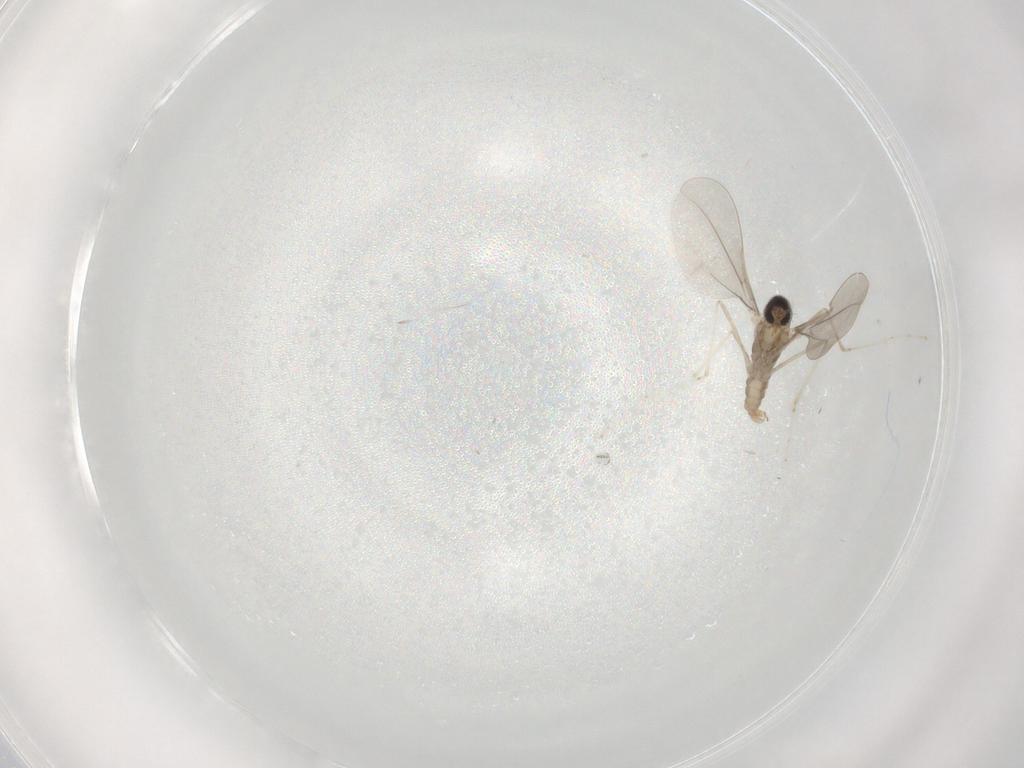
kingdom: Animalia
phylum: Arthropoda
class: Insecta
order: Diptera
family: Cecidomyiidae
